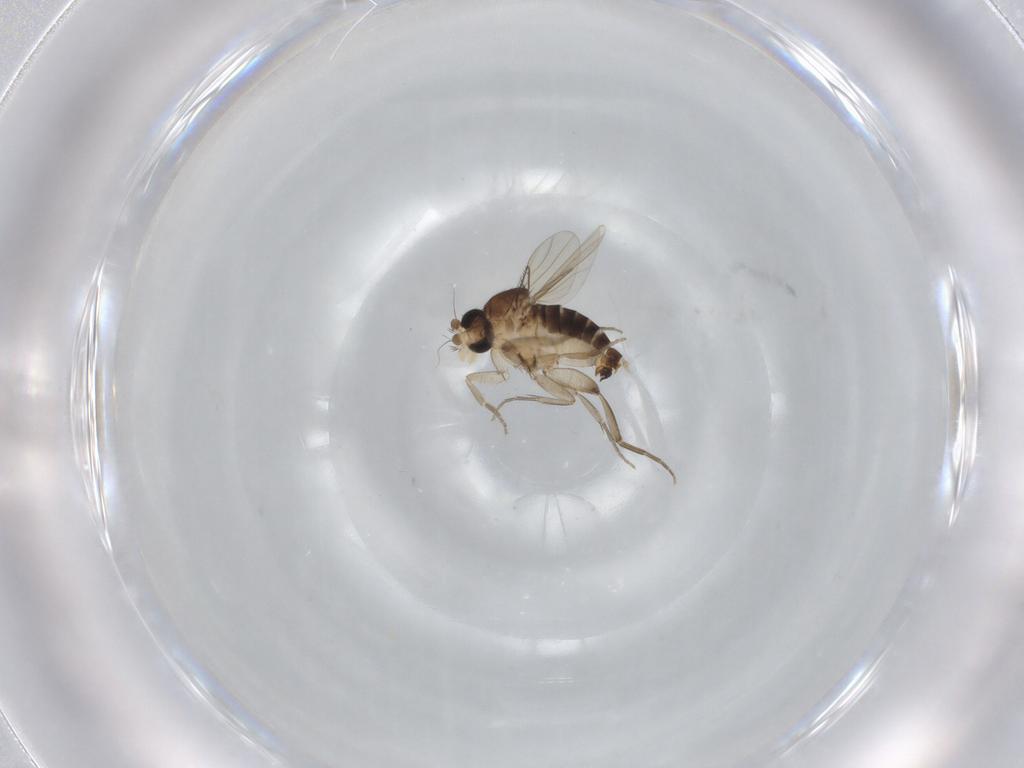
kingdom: Animalia
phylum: Arthropoda
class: Insecta
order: Diptera
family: Phoridae
